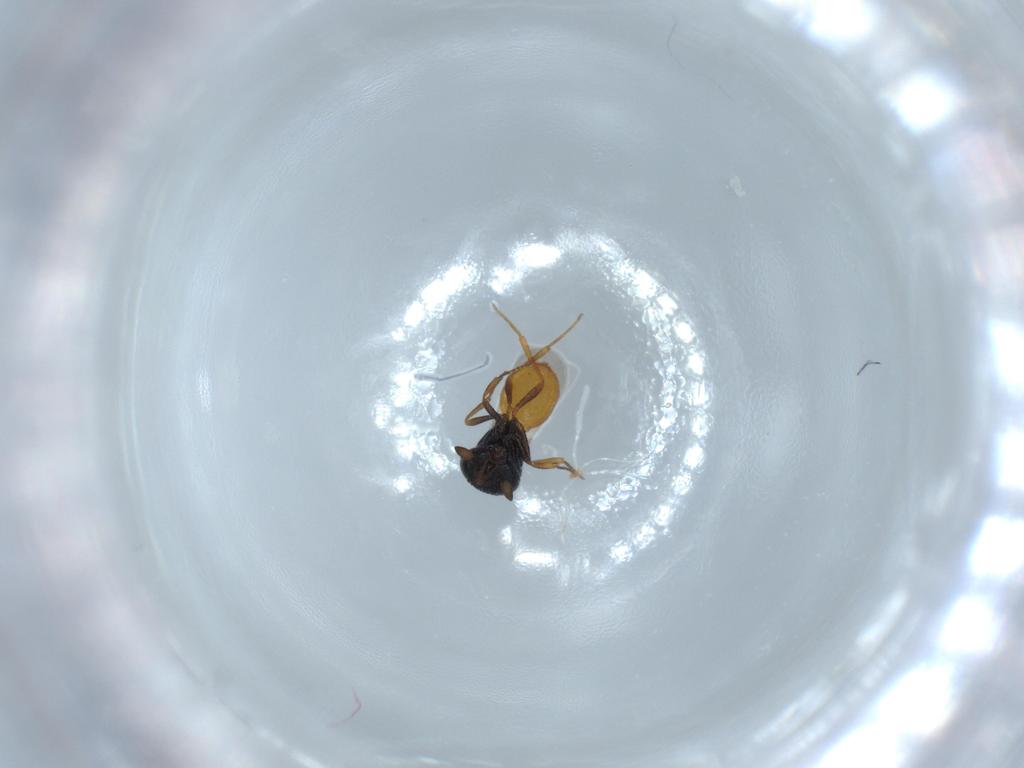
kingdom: Animalia
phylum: Arthropoda
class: Insecta
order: Hymenoptera
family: Scelionidae
